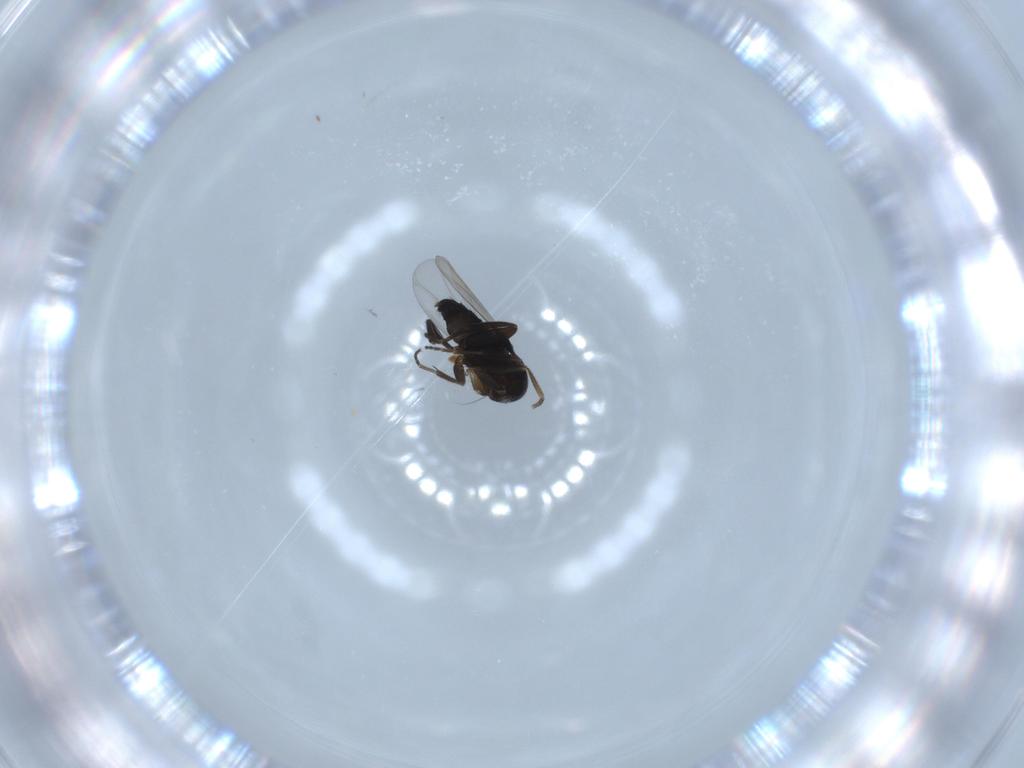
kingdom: Animalia
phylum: Arthropoda
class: Insecta
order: Diptera
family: Phoridae
